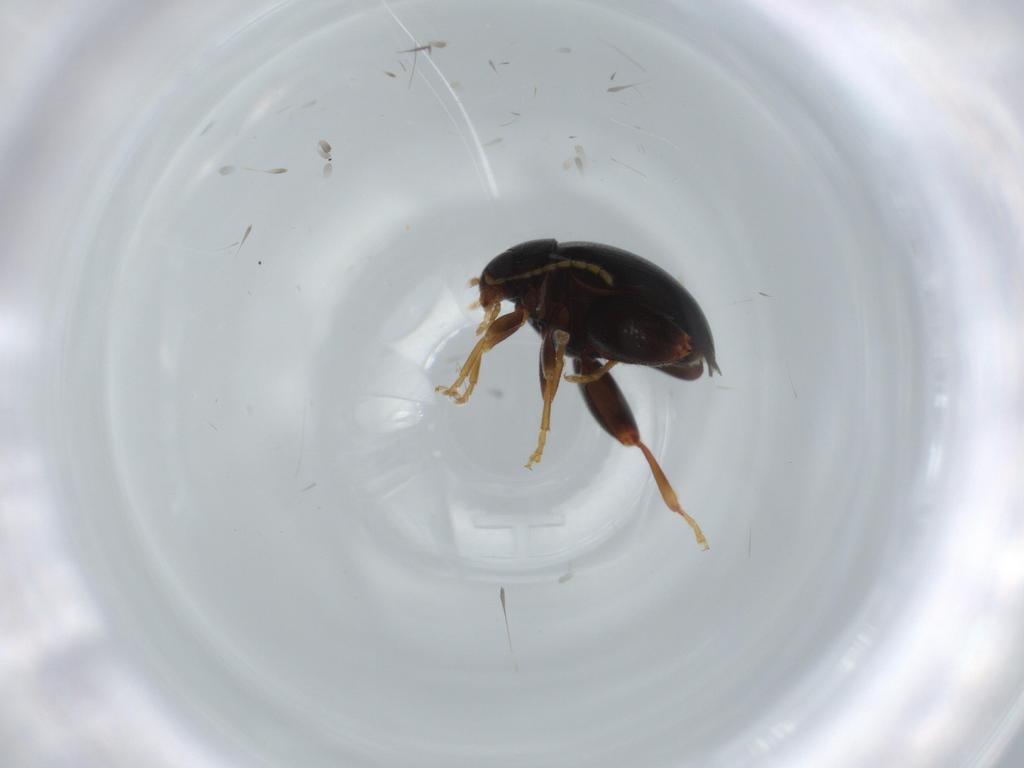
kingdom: Animalia
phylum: Arthropoda
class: Insecta
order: Coleoptera
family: Chrysomelidae
